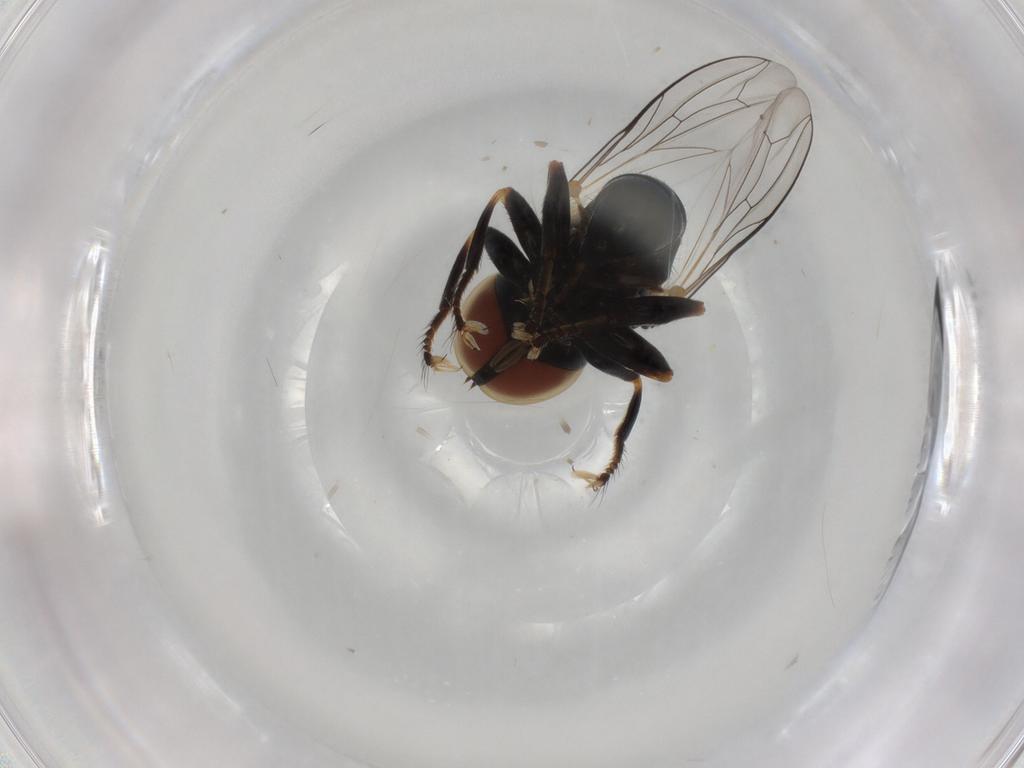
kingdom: Animalia
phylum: Arthropoda
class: Insecta
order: Diptera
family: Pipunculidae
